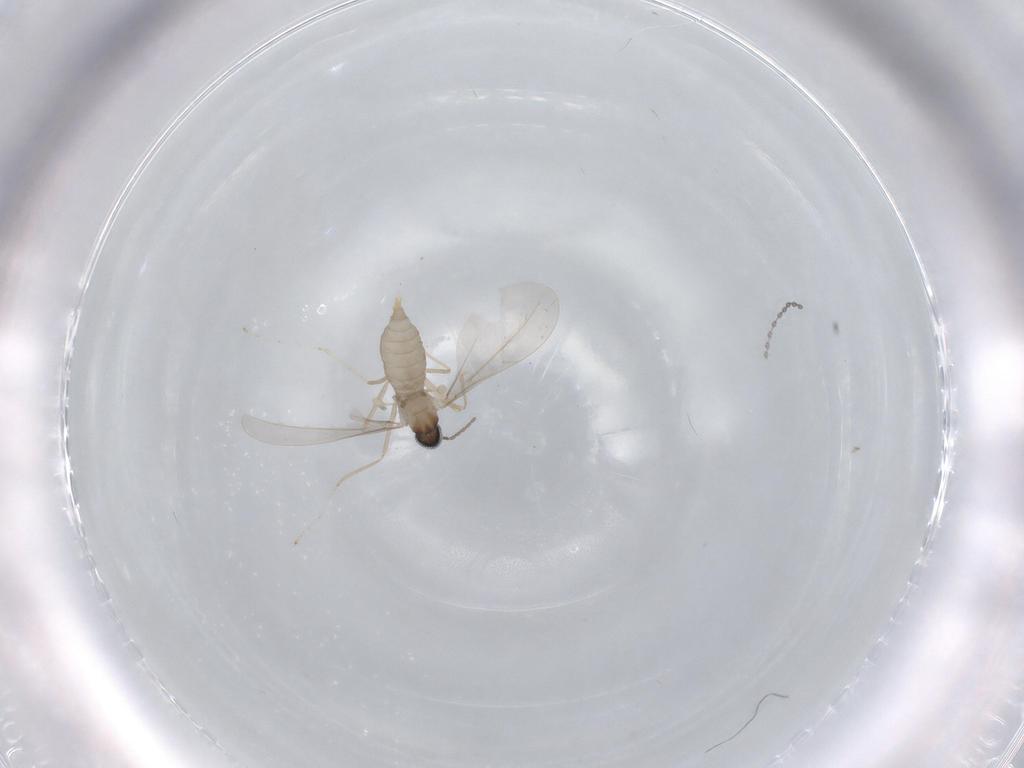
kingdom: Animalia
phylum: Arthropoda
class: Insecta
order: Diptera
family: Cecidomyiidae
